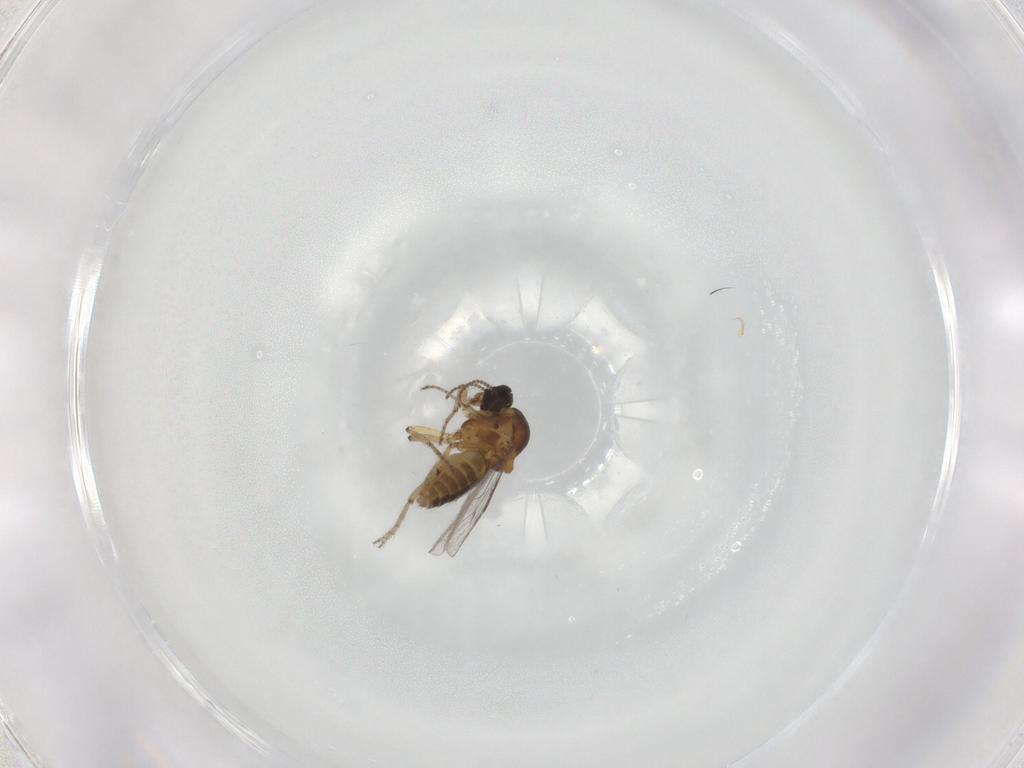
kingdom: Animalia
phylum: Arthropoda
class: Insecta
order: Diptera
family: Ceratopogonidae
